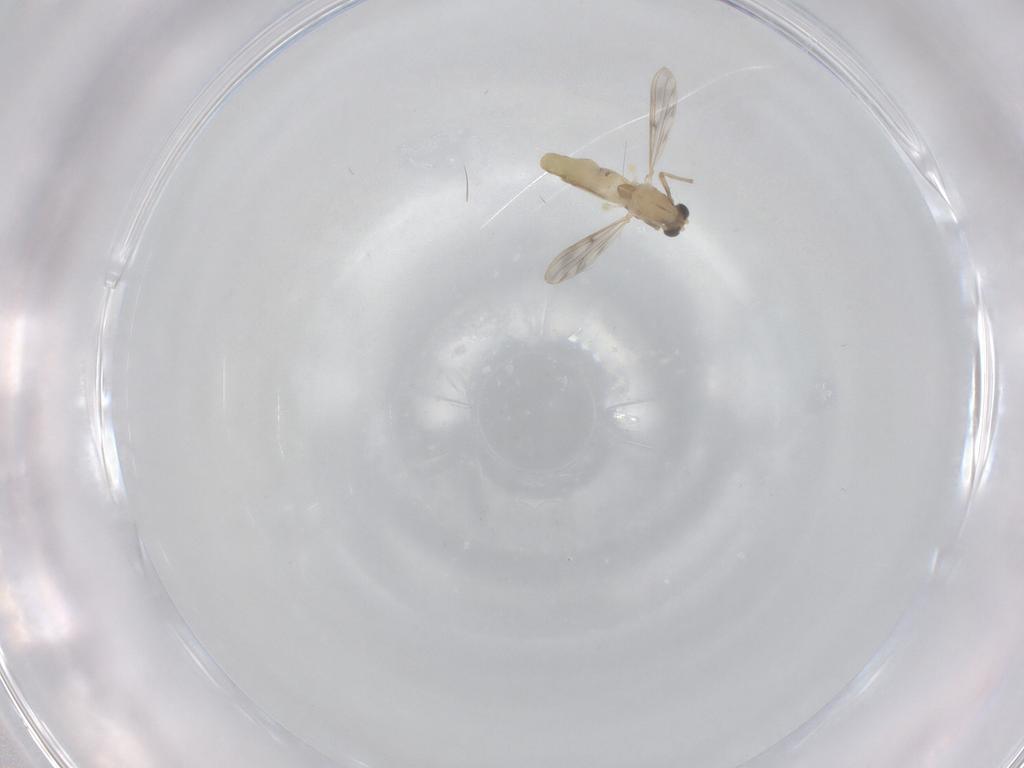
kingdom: Animalia
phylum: Arthropoda
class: Insecta
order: Diptera
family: Chironomidae
